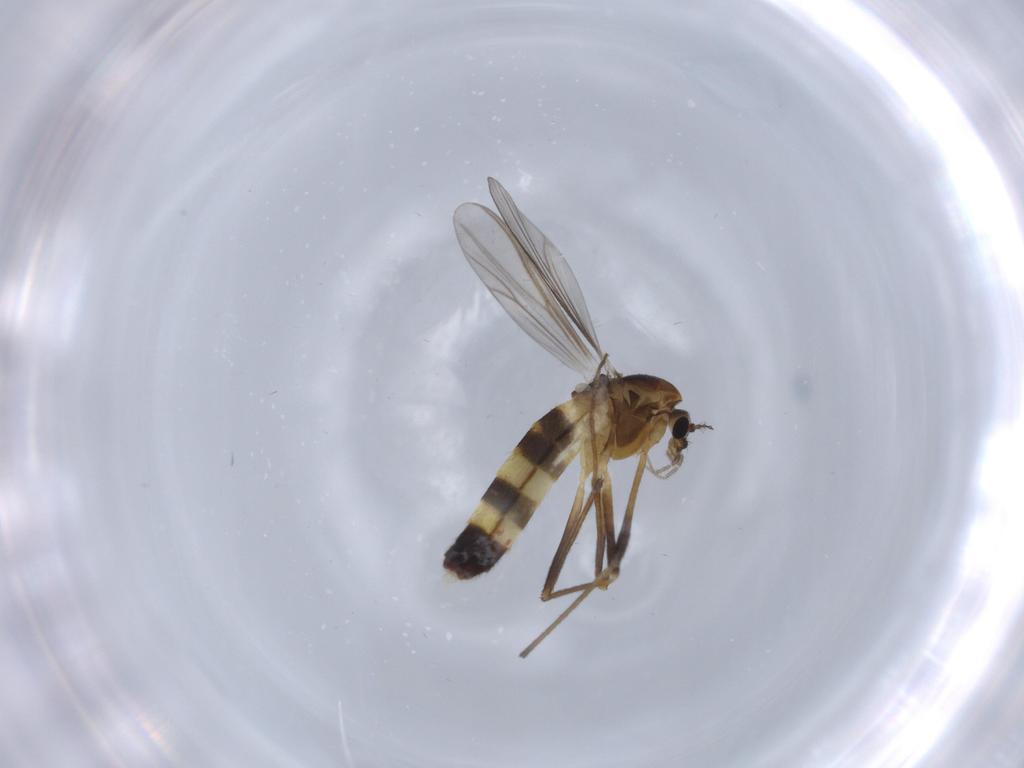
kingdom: Animalia
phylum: Arthropoda
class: Insecta
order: Diptera
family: Chironomidae
